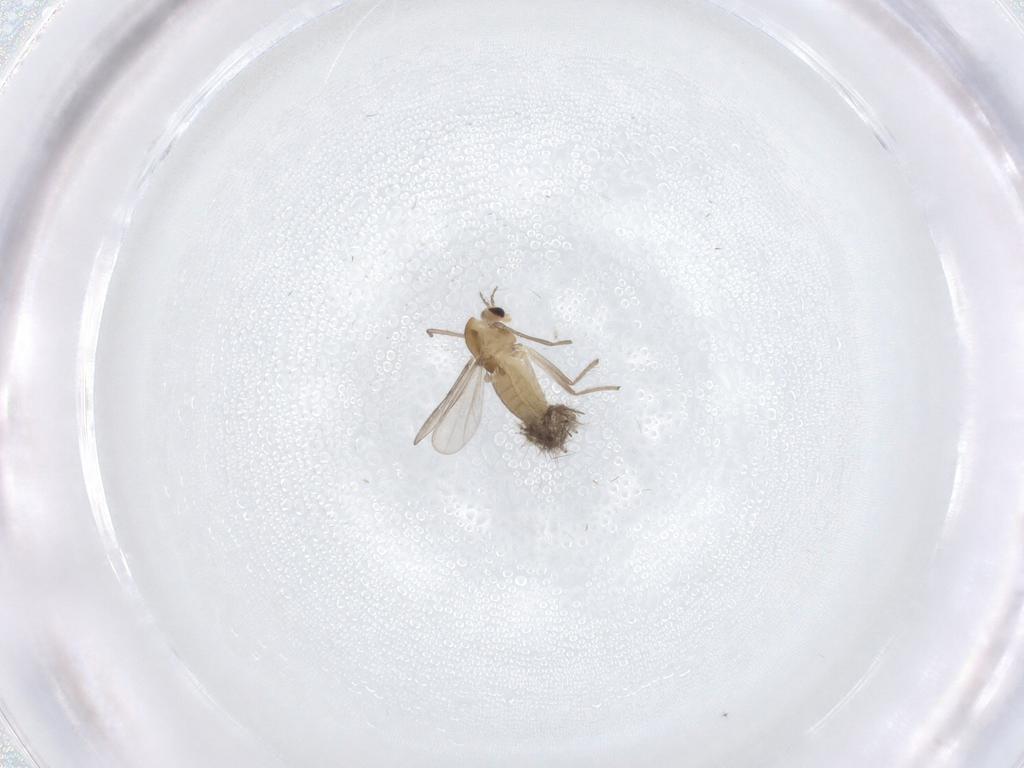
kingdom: Animalia
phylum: Arthropoda
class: Insecta
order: Diptera
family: Chironomidae
